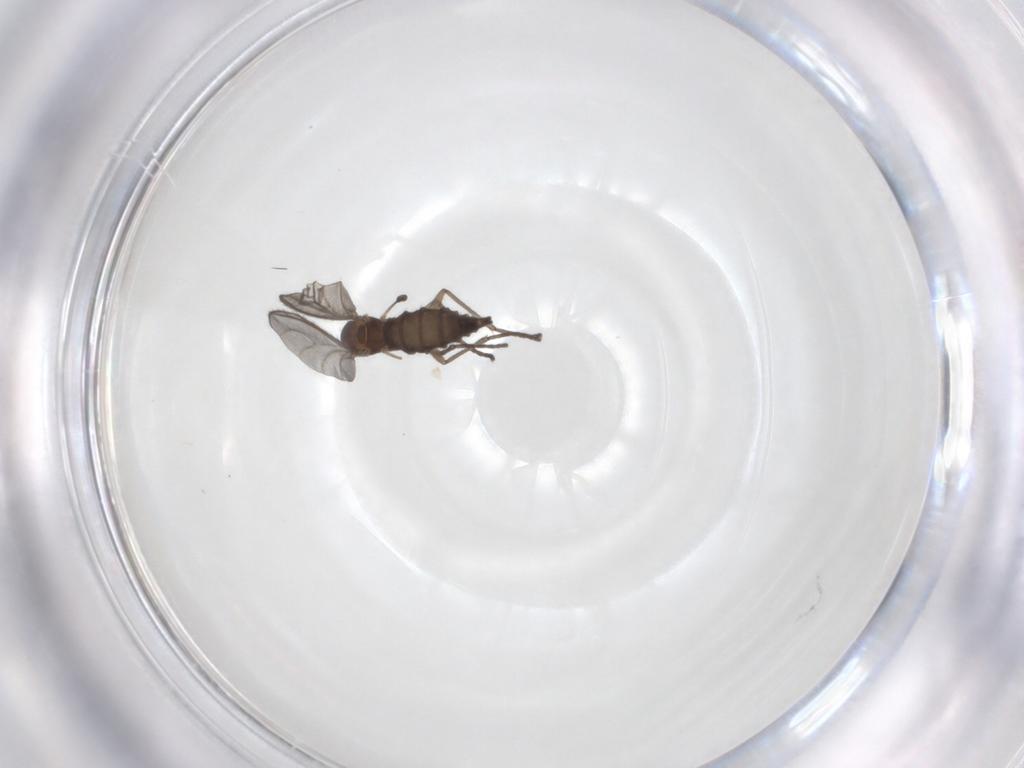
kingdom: Animalia
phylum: Arthropoda
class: Insecta
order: Diptera
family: Sciaridae
